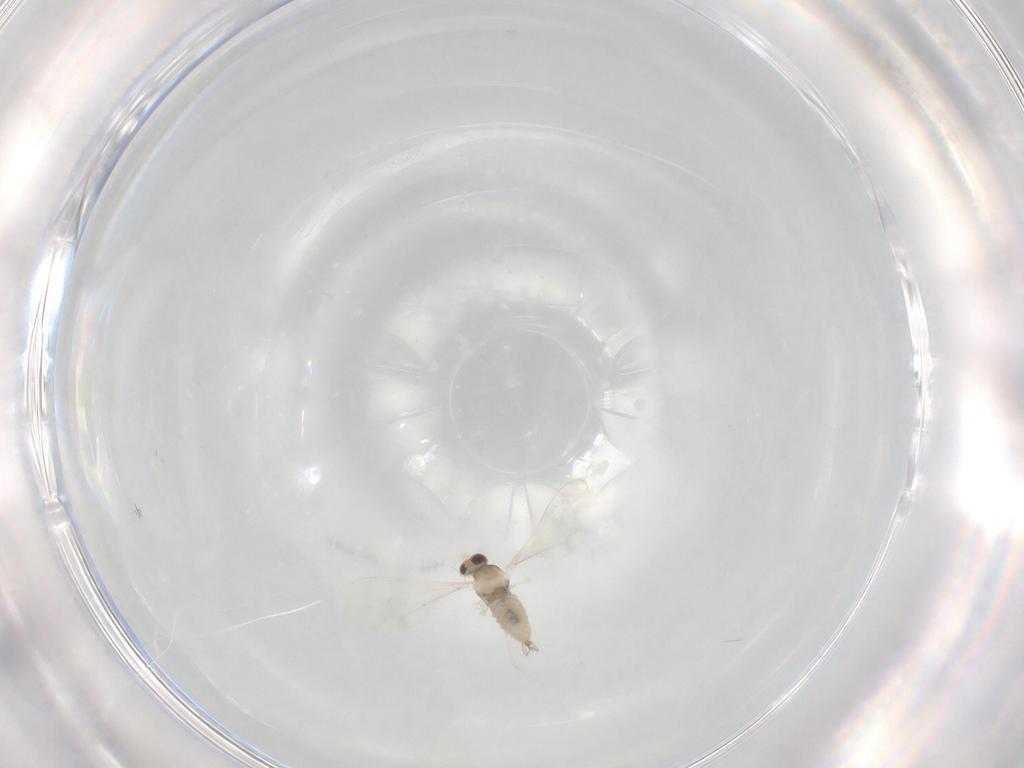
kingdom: Animalia
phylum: Arthropoda
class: Insecta
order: Diptera
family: Cecidomyiidae
